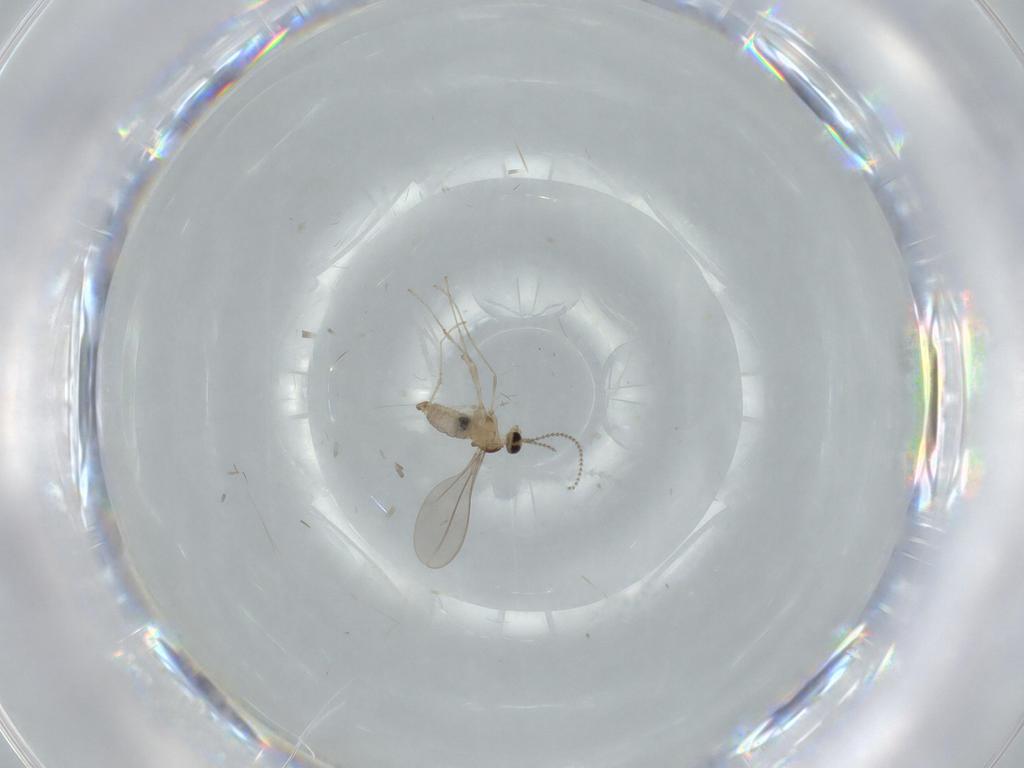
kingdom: Animalia
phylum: Arthropoda
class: Insecta
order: Diptera
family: Cecidomyiidae
